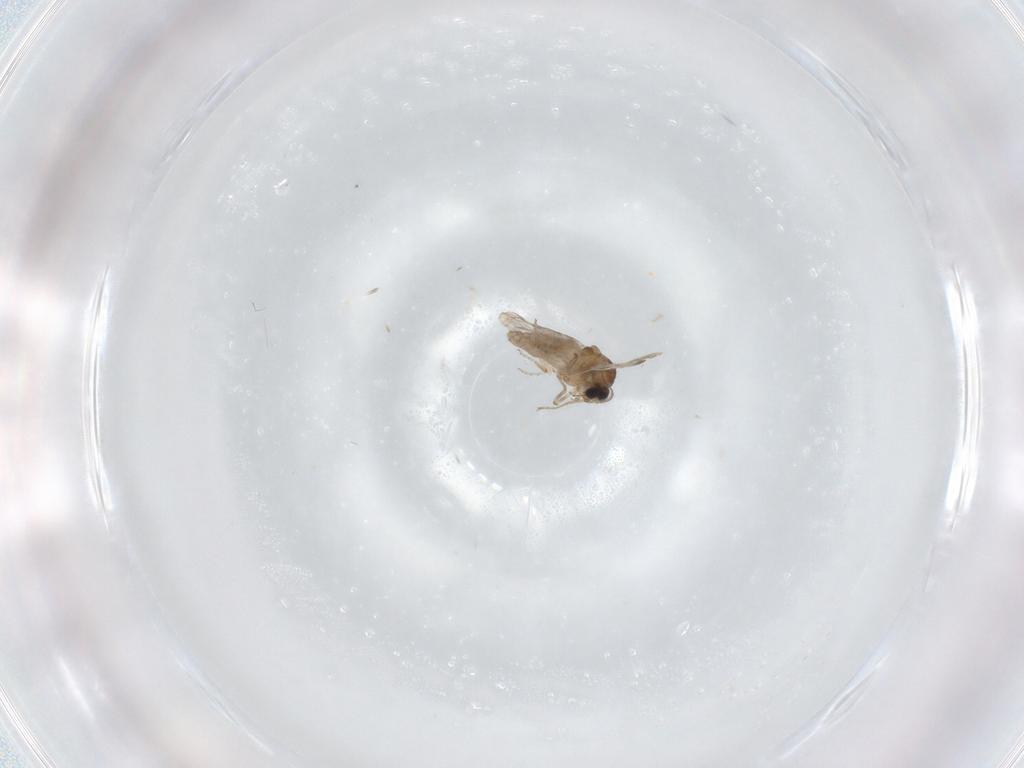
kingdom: Animalia
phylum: Arthropoda
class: Insecta
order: Diptera
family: Ceratopogonidae
